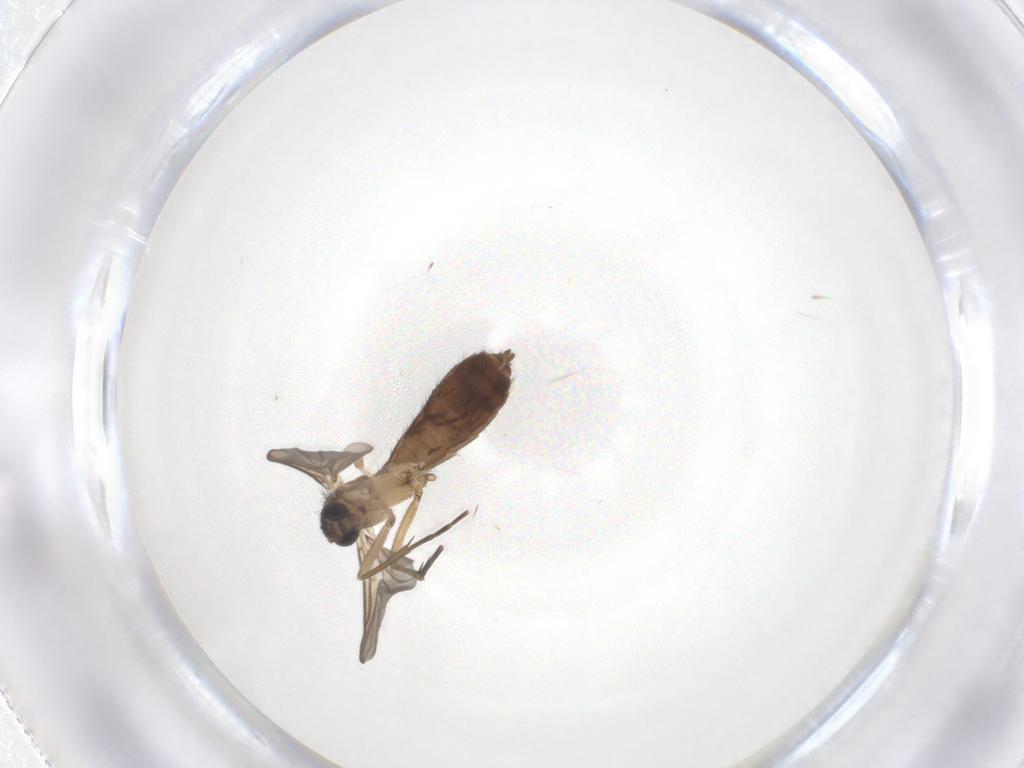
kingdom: Animalia
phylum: Arthropoda
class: Insecta
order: Diptera
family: Keroplatidae
